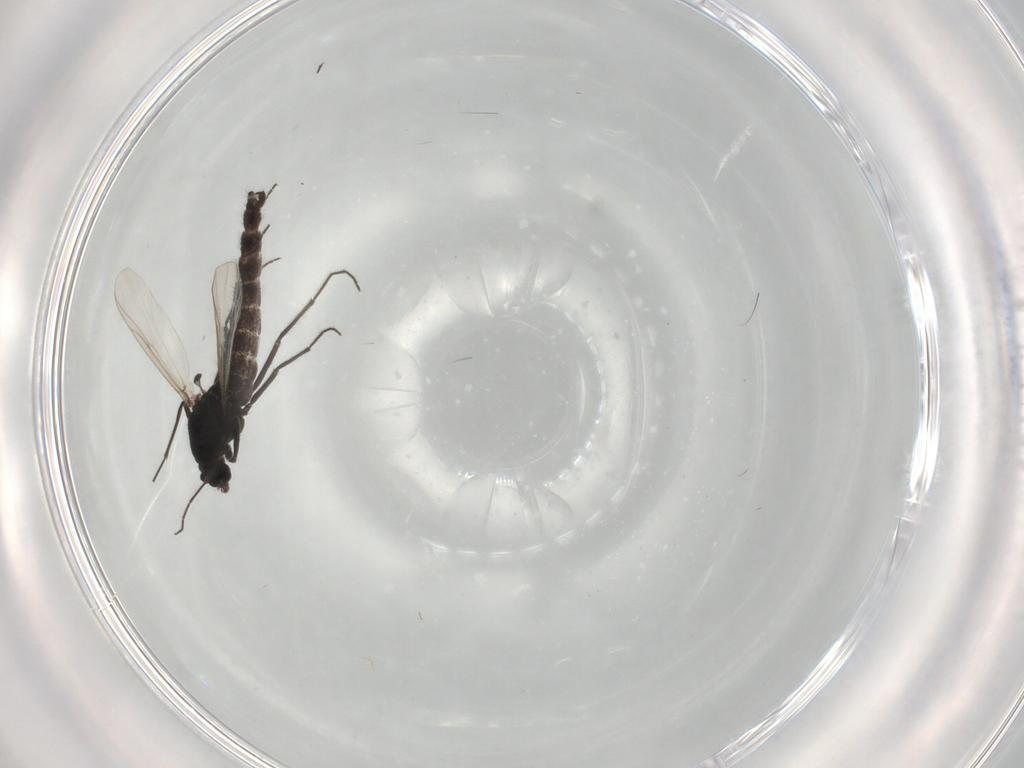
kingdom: Animalia
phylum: Arthropoda
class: Insecta
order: Diptera
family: Chironomidae
